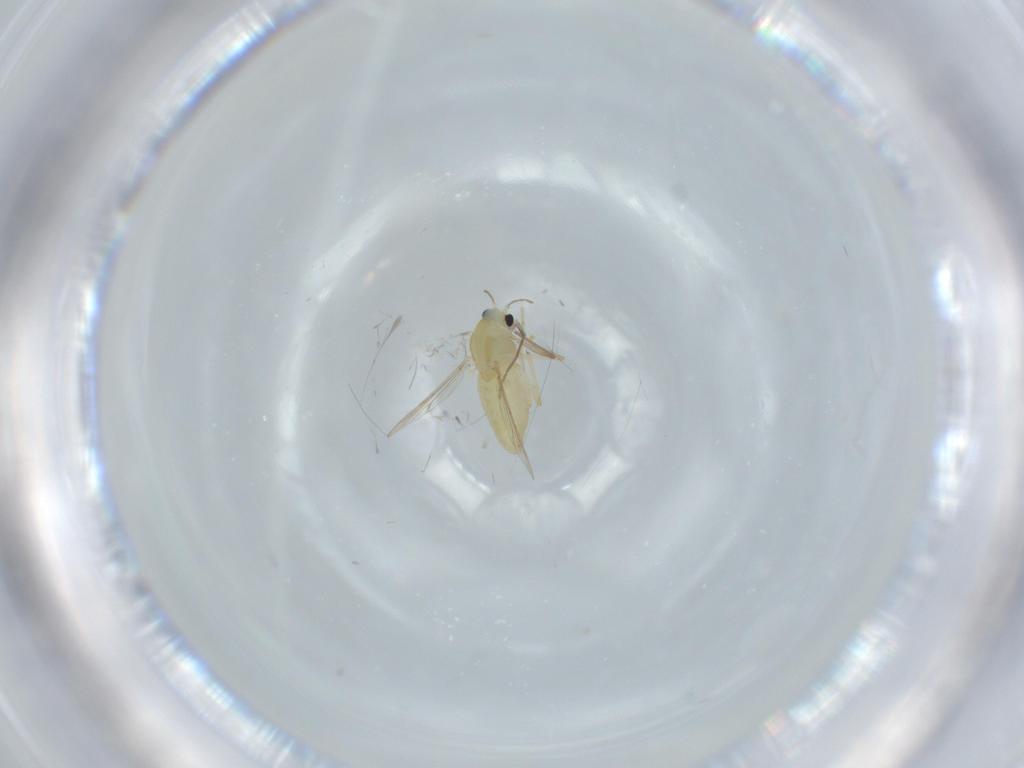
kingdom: Animalia
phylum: Arthropoda
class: Insecta
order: Diptera
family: Chironomidae
